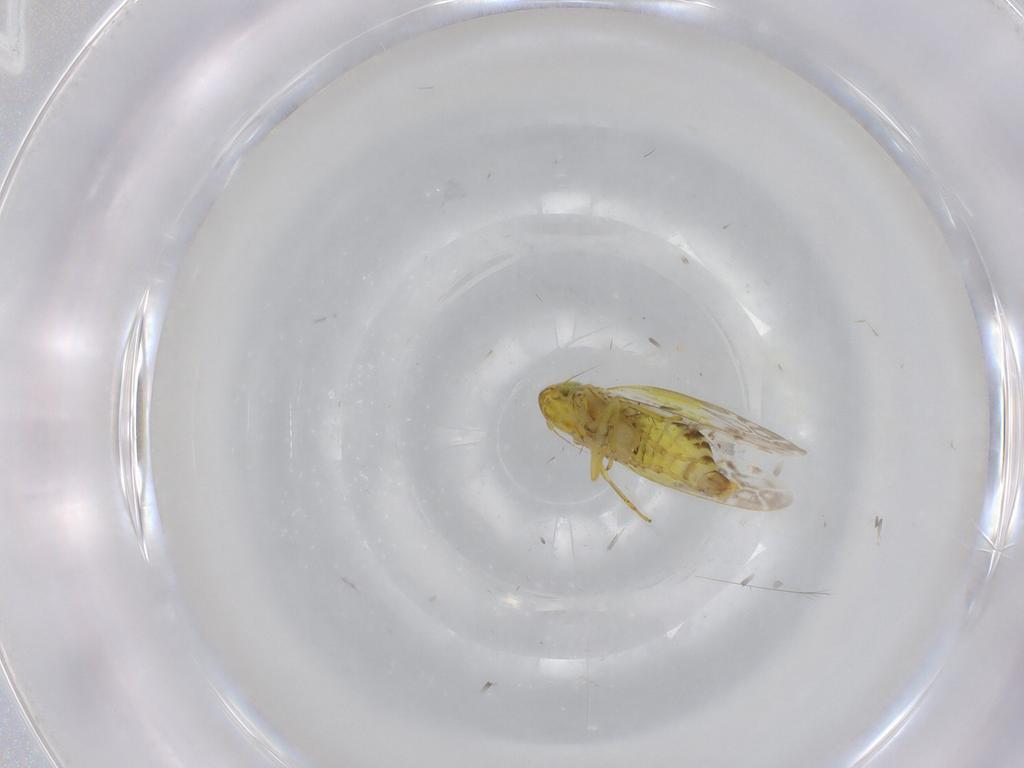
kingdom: Animalia
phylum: Arthropoda
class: Insecta
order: Hemiptera
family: Cicadellidae
